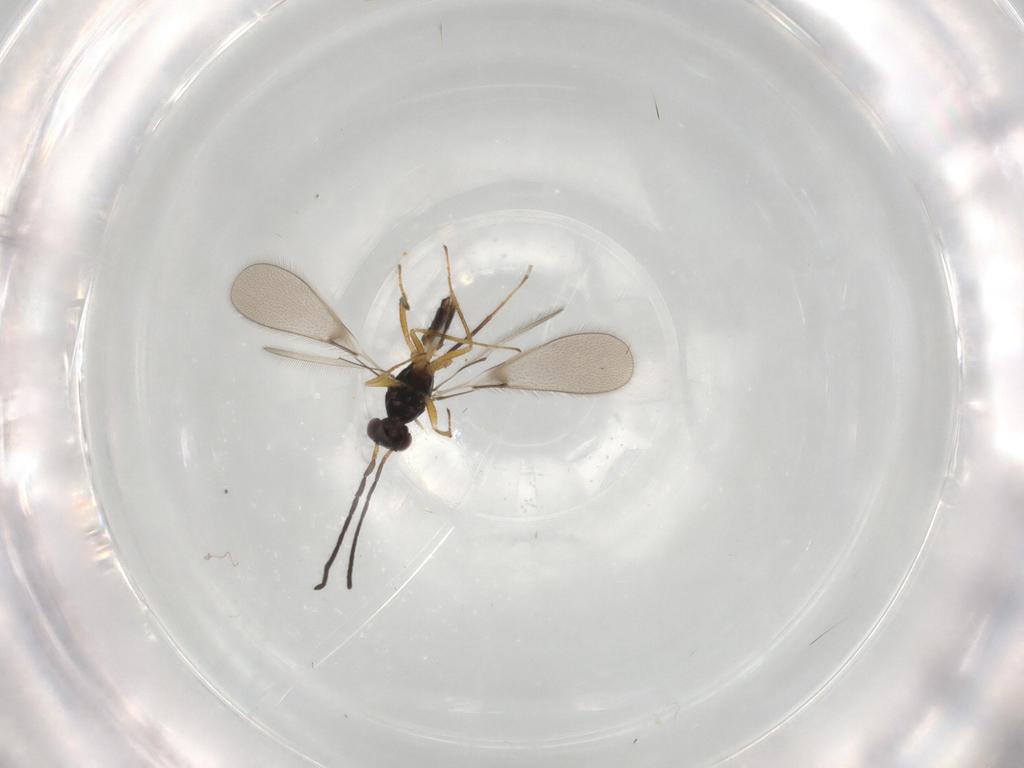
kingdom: Animalia
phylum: Arthropoda
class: Insecta
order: Hymenoptera
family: Mymaridae
